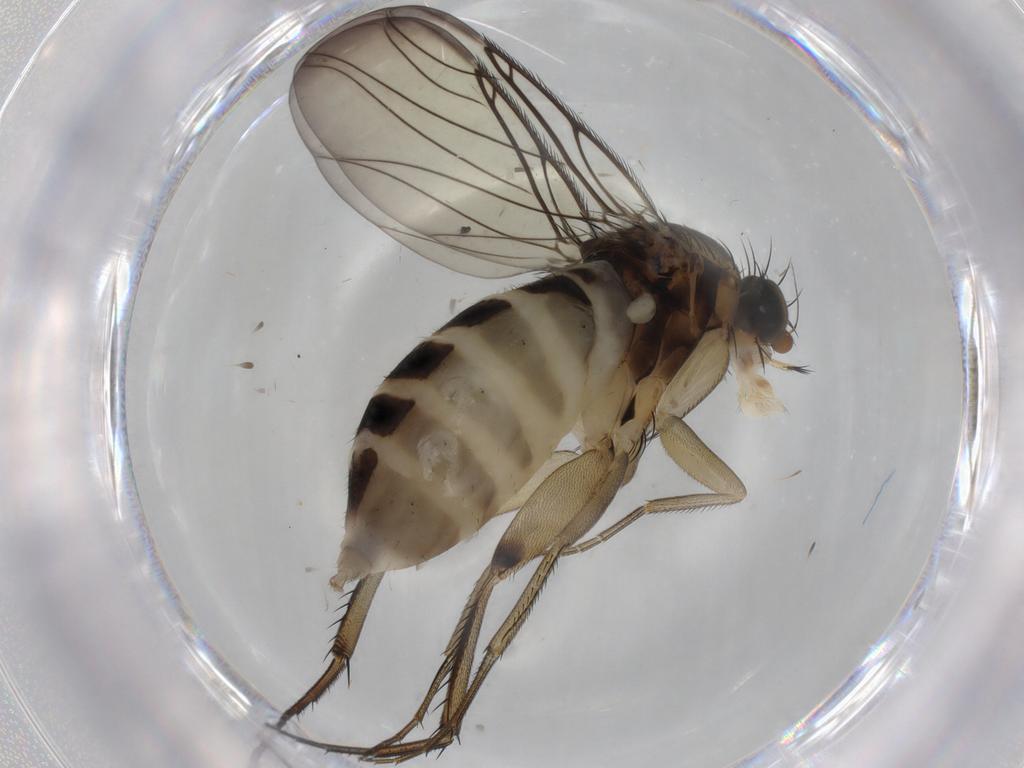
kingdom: Animalia
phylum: Arthropoda
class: Insecta
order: Diptera
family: Phoridae
